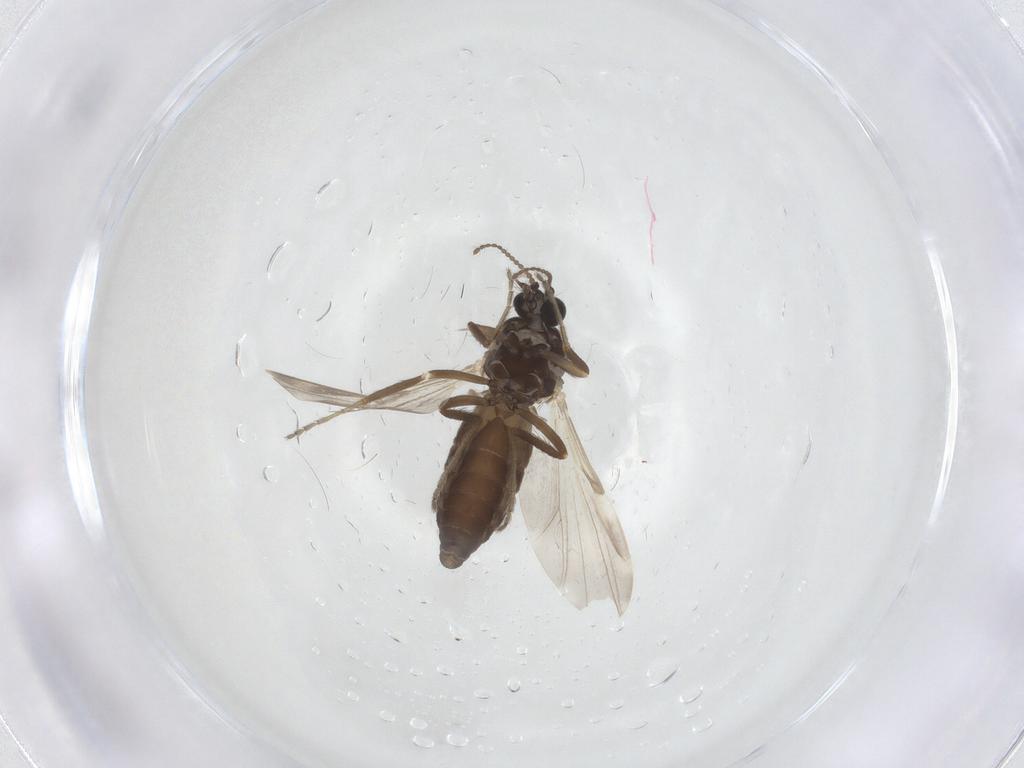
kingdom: Animalia
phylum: Arthropoda
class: Insecta
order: Diptera
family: Ceratopogonidae
